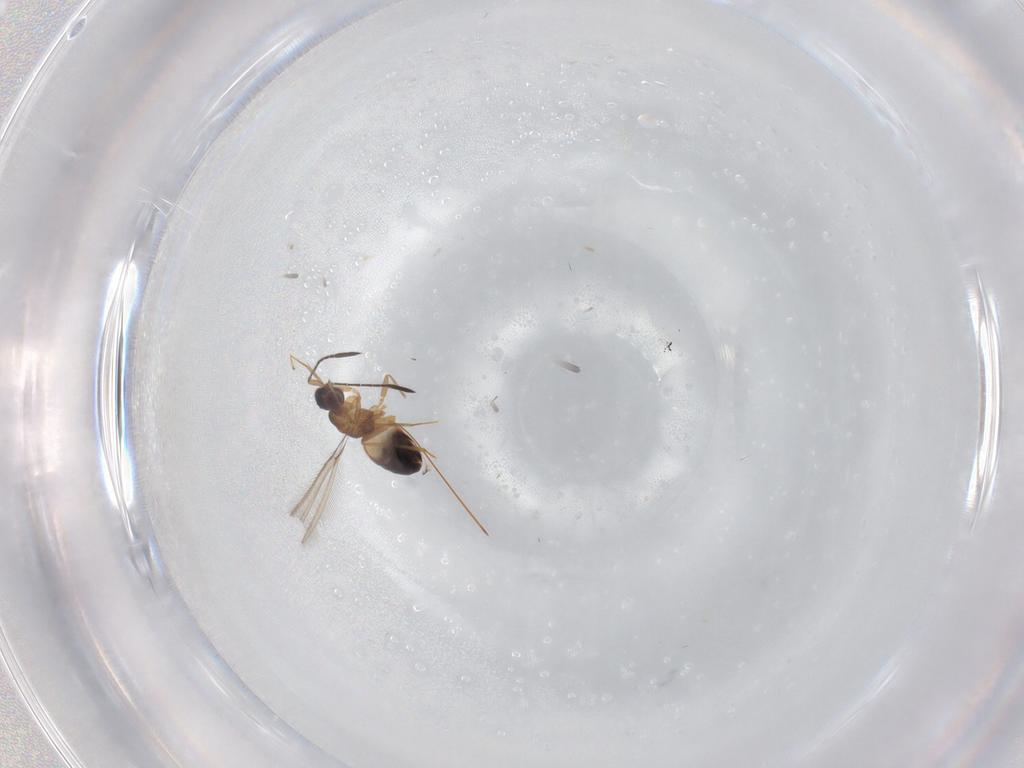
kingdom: Animalia
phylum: Arthropoda
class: Insecta
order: Hymenoptera
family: Mymaridae
